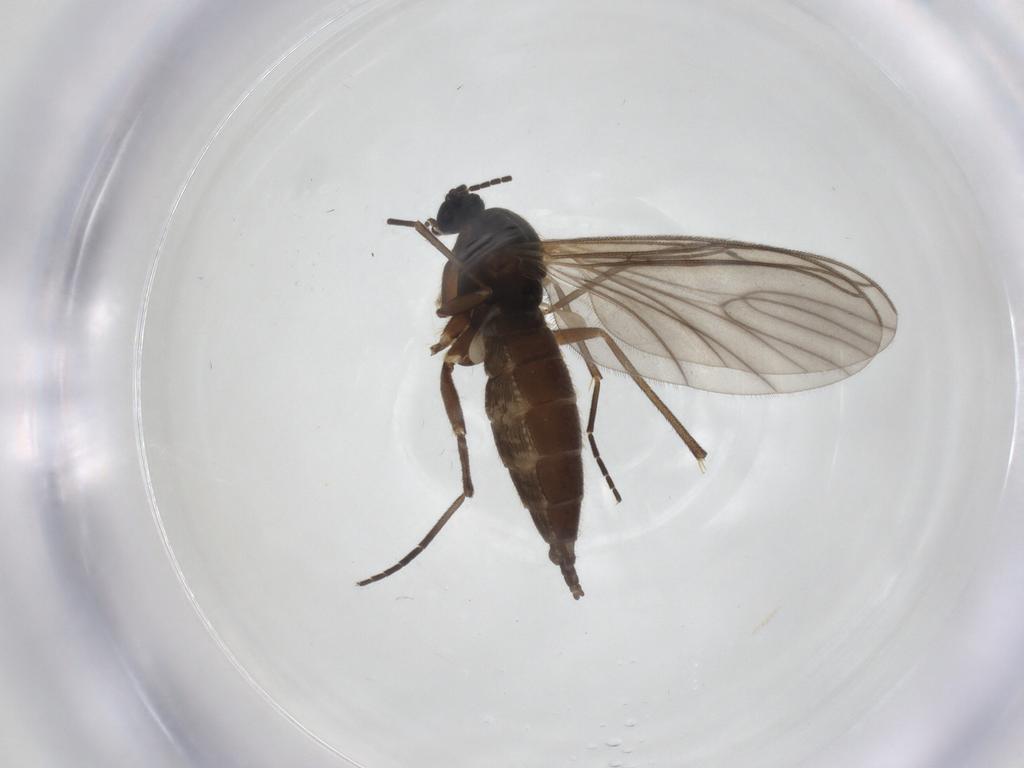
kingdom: Animalia
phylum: Arthropoda
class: Insecta
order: Diptera
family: Sciaridae
